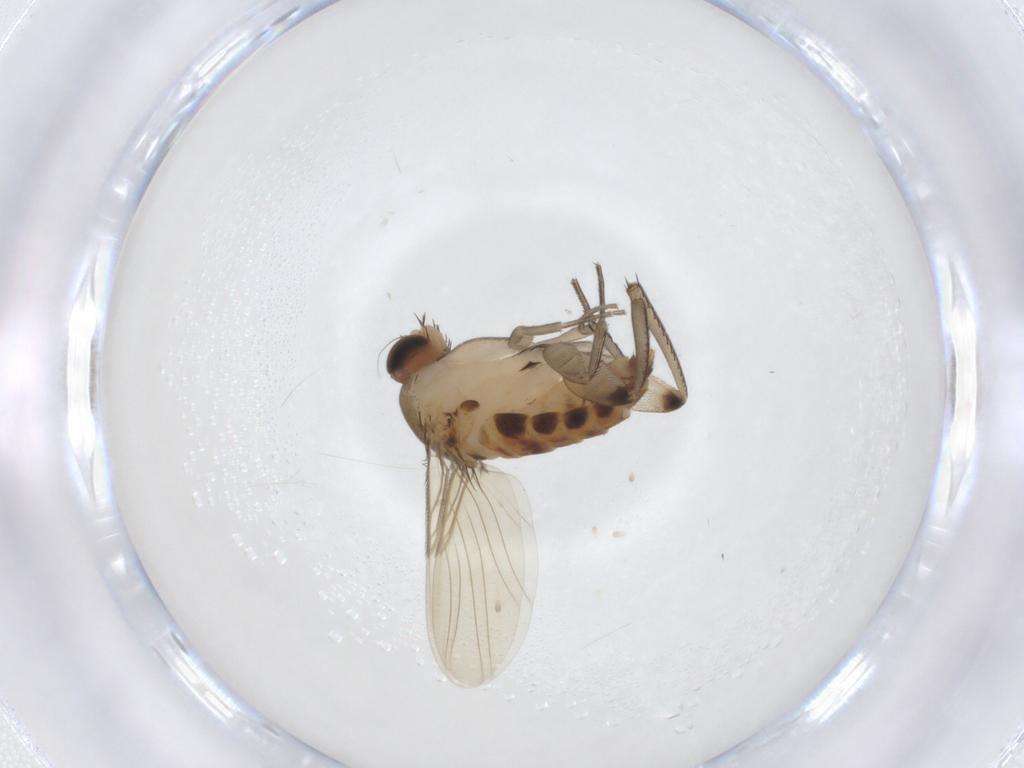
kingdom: Animalia
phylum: Arthropoda
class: Insecta
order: Diptera
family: Phoridae
